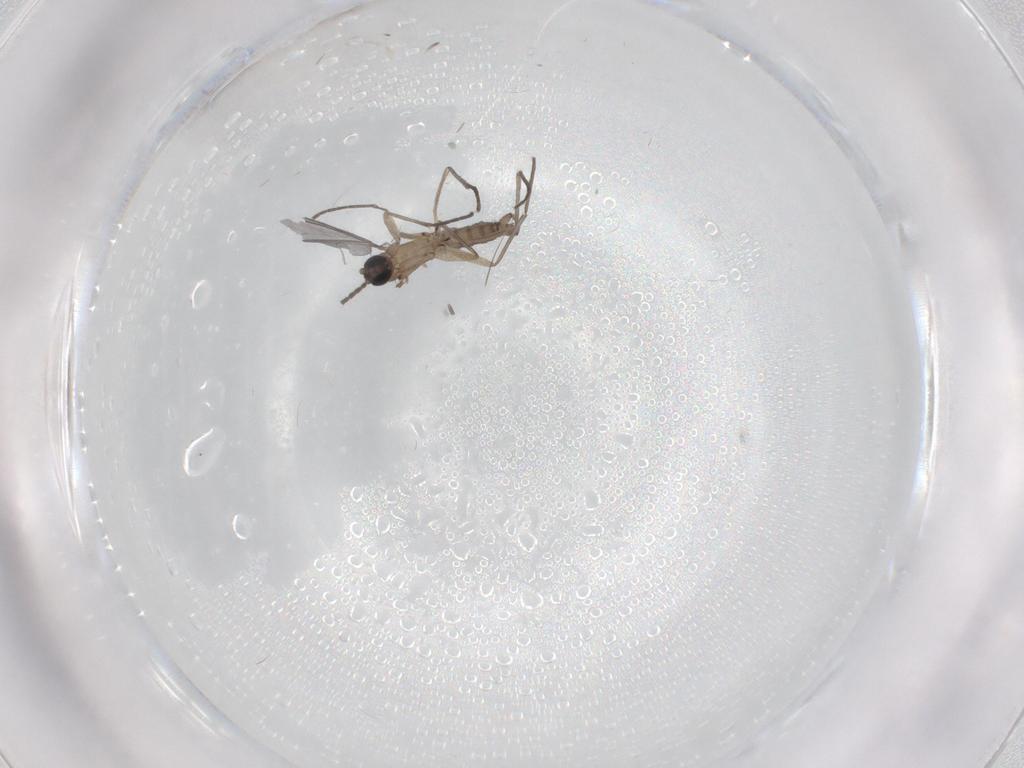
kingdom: Animalia
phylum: Arthropoda
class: Insecta
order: Diptera
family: Sciaridae
